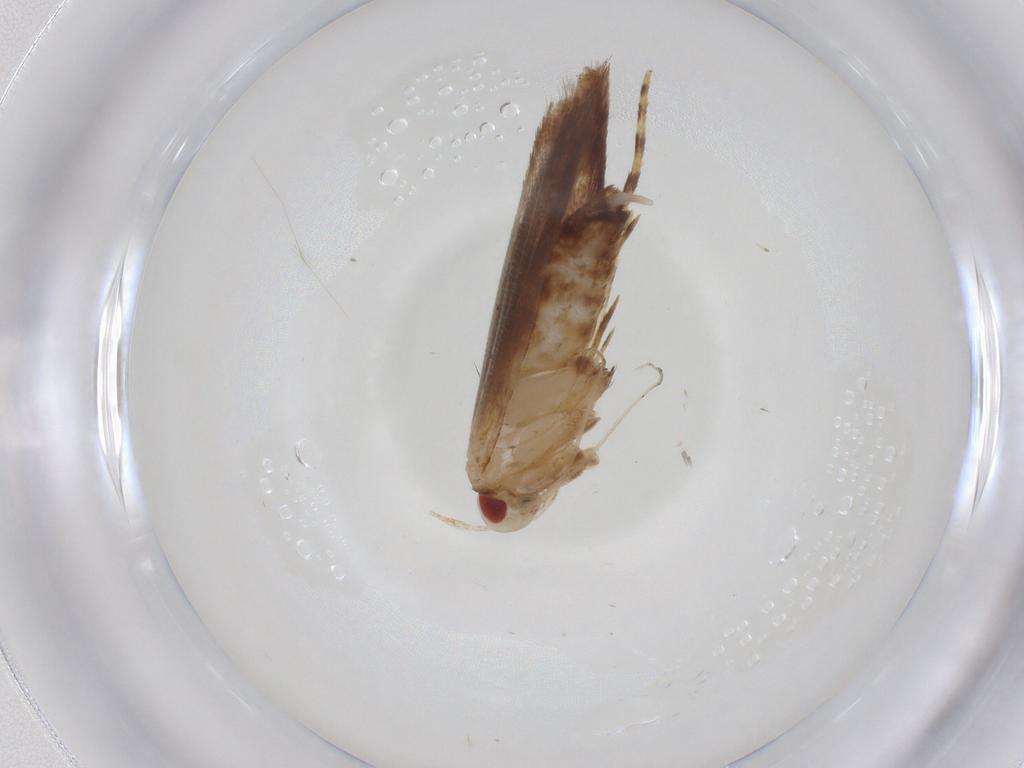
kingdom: Animalia
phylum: Arthropoda
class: Insecta
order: Lepidoptera
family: Cosmopterigidae
